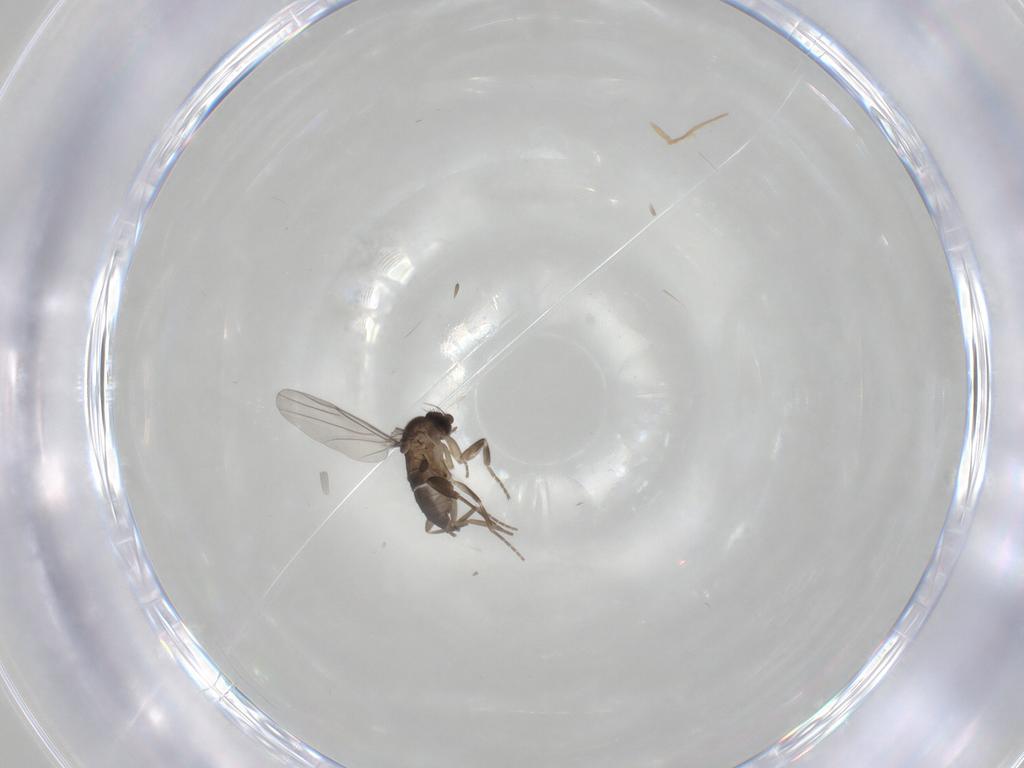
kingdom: Animalia
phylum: Arthropoda
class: Insecta
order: Diptera
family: Phoridae
